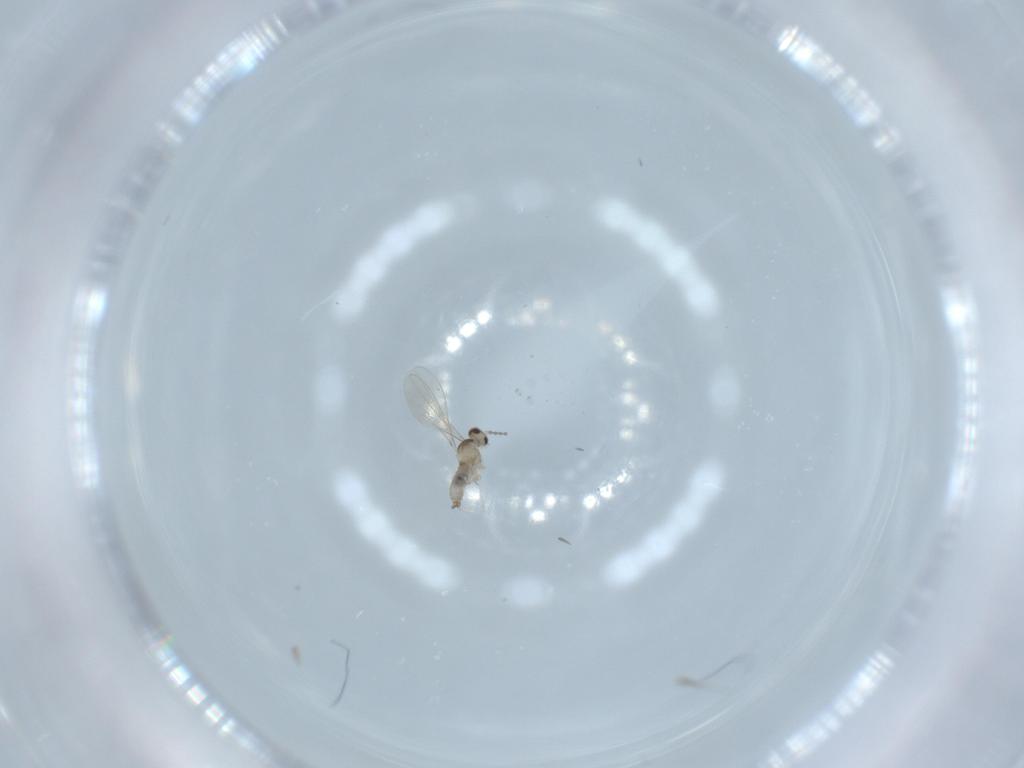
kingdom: Animalia
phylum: Arthropoda
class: Insecta
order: Diptera
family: Cecidomyiidae
